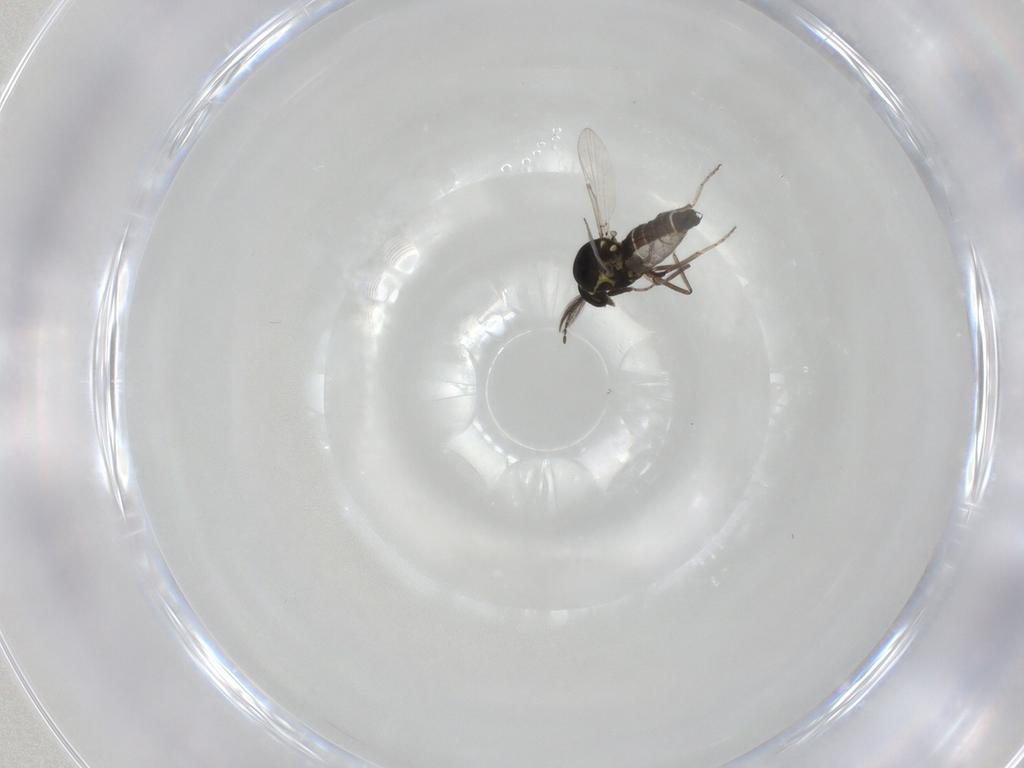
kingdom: Animalia
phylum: Arthropoda
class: Insecta
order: Diptera
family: Ceratopogonidae
